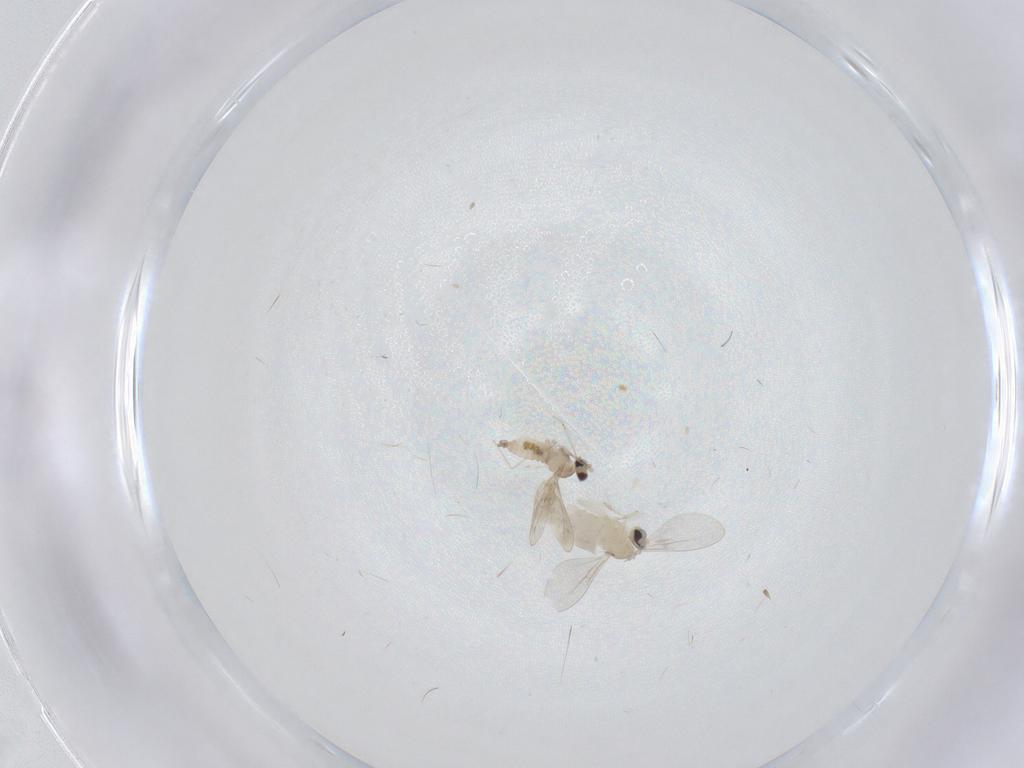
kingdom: Animalia
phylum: Arthropoda
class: Insecta
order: Diptera
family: Cecidomyiidae
